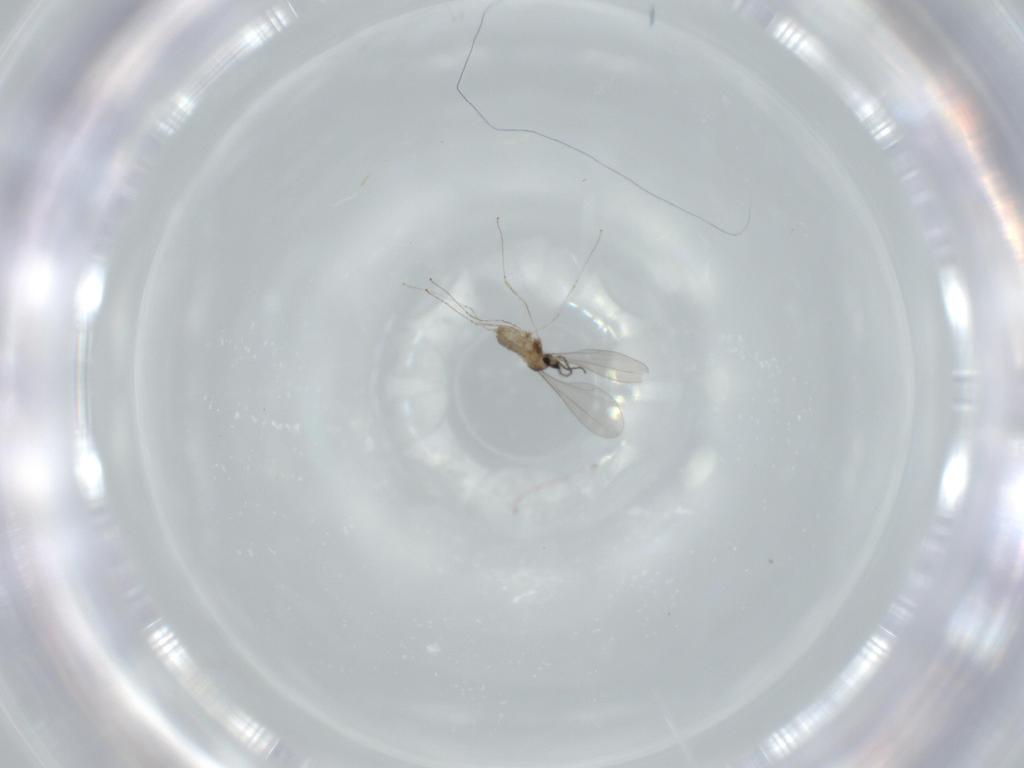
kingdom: Animalia
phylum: Arthropoda
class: Insecta
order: Diptera
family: Cecidomyiidae
